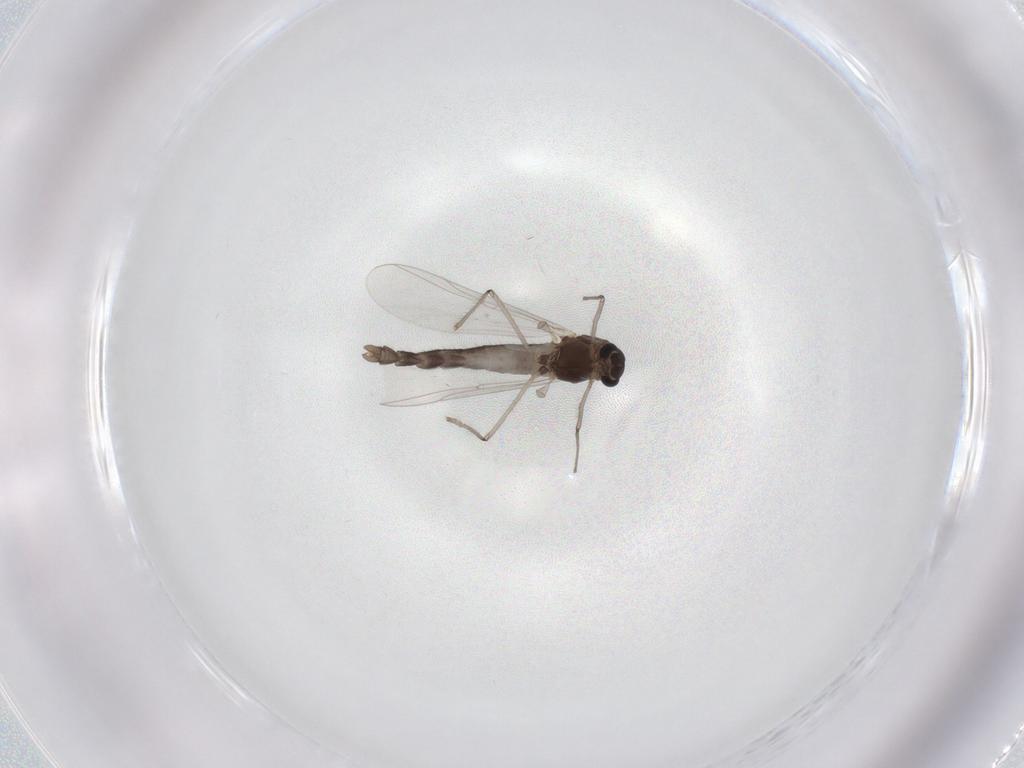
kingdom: Animalia
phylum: Arthropoda
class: Insecta
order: Diptera
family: Chironomidae
